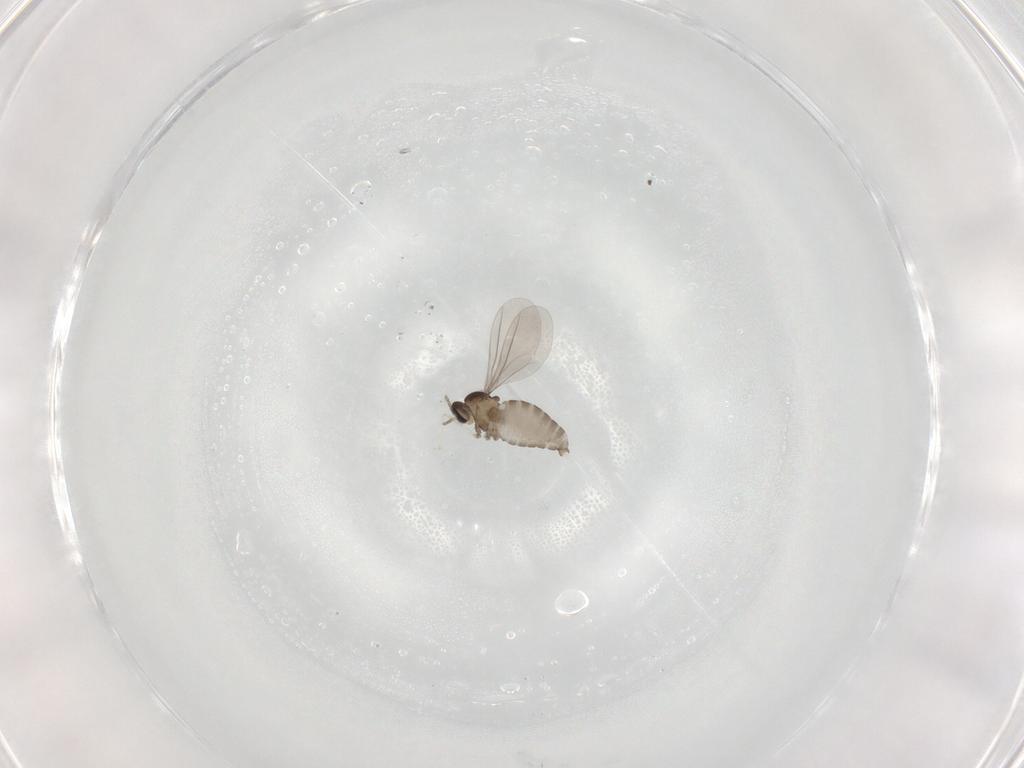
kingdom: Animalia
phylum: Arthropoda
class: Insecta
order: Diptera
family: Cecidomyiidae
